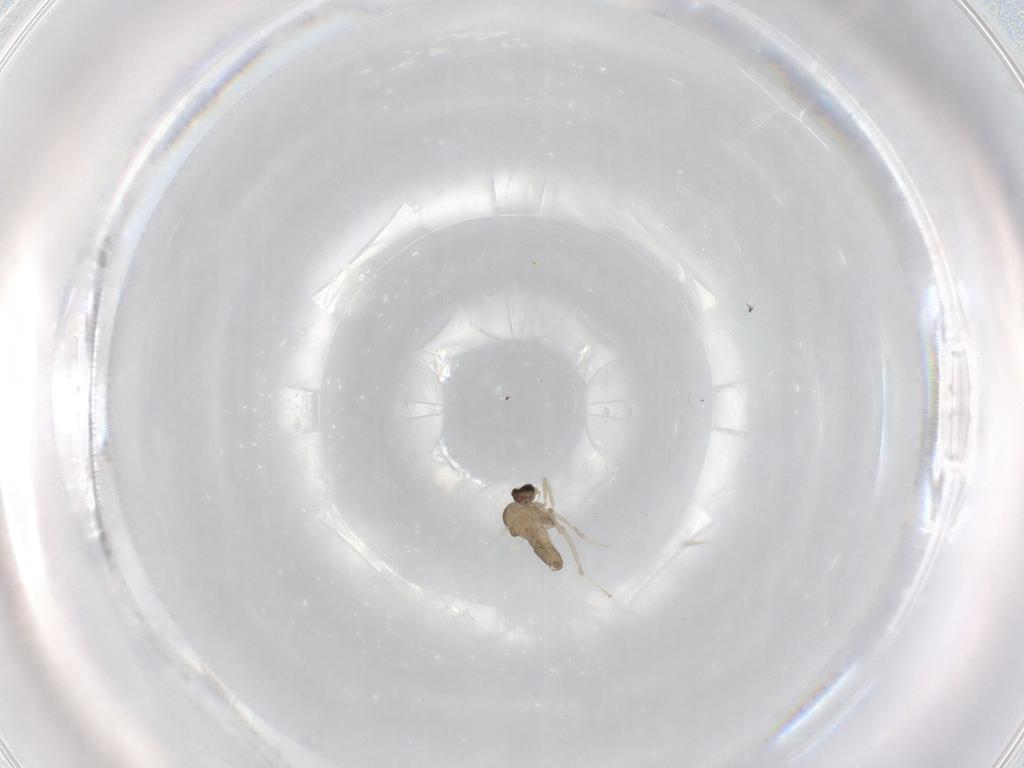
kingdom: Animalia
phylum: Arthropoda
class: Insecta
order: Diptera
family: Cecidomyiidae
